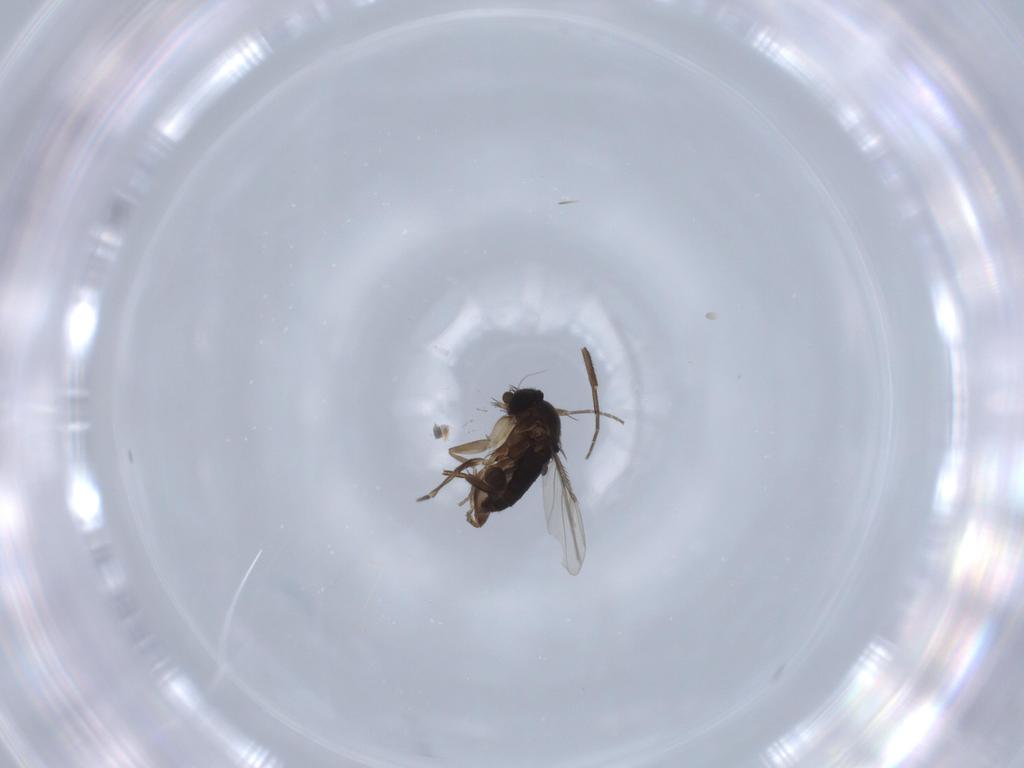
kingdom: Animalia
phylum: Arthropoda
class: Insecta
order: Diptera
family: Phoridae
